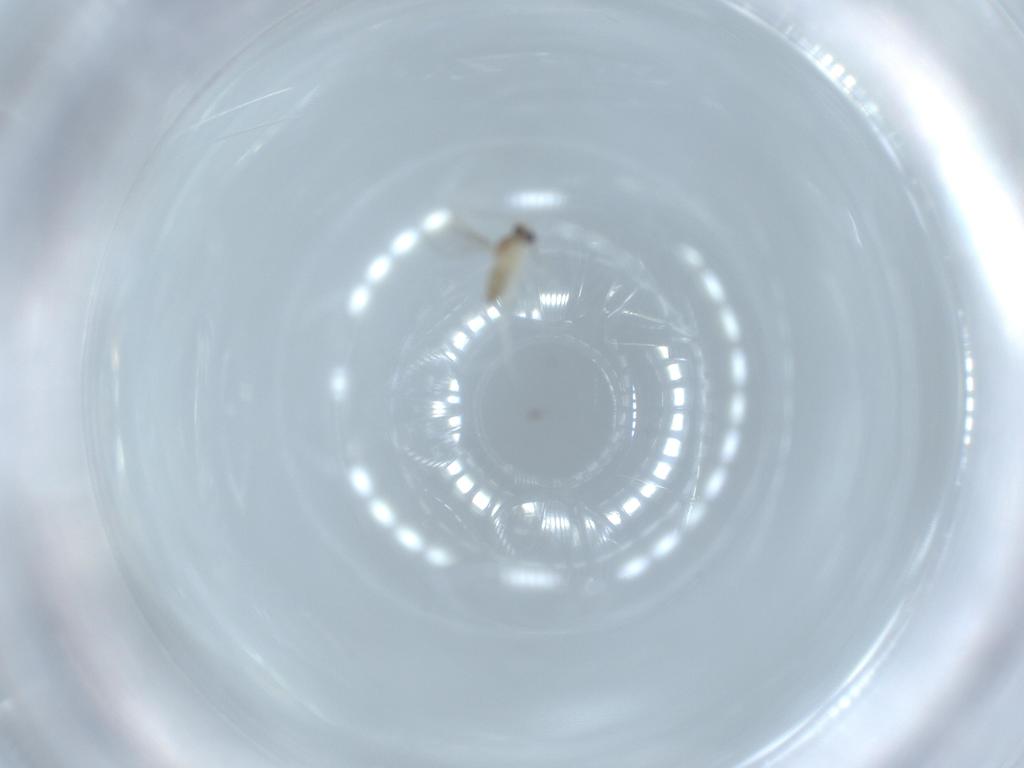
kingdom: Animalia
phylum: Arthropoda
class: Insecta
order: Diptera
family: Cecidomyiidae
